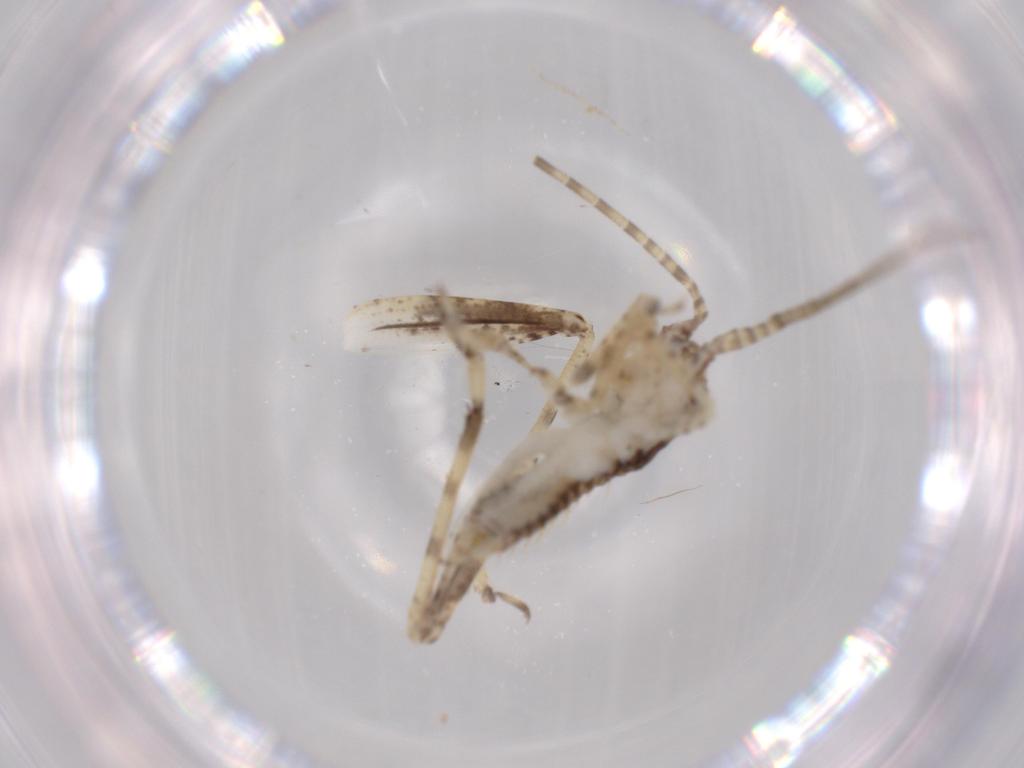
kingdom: Animalia
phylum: Arthropoda
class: Insecta
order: Orthoptera
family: Gryllidae
